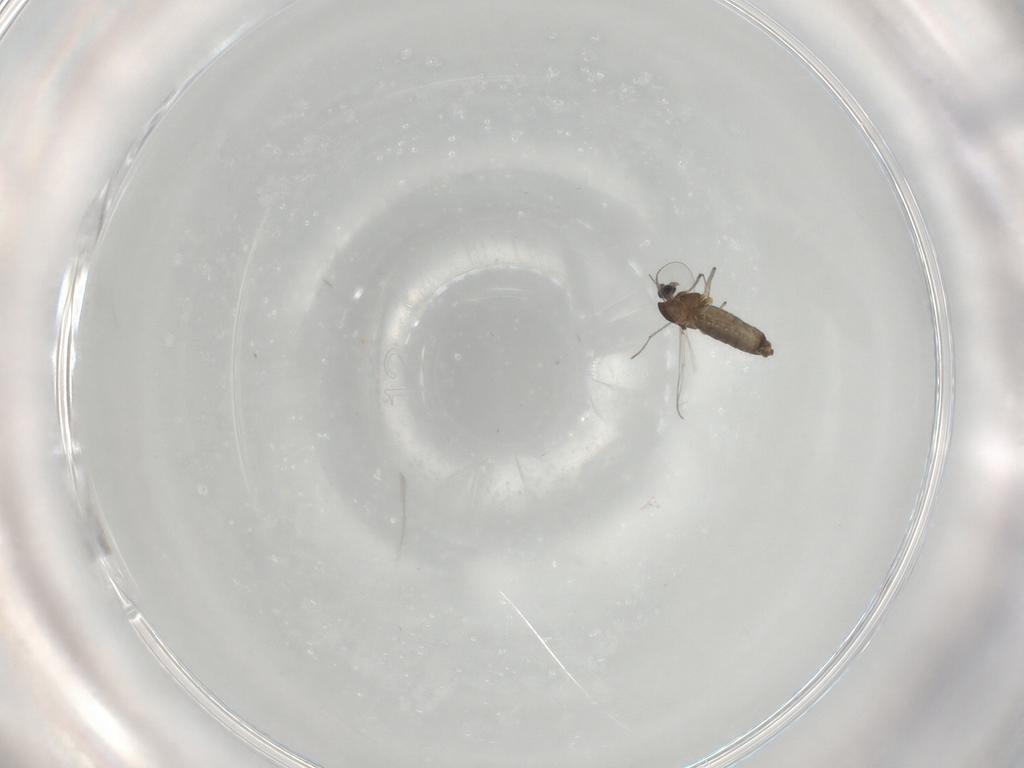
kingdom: Animalia
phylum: Arthropoda
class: Insecta
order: Diptera
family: Chironomidae
